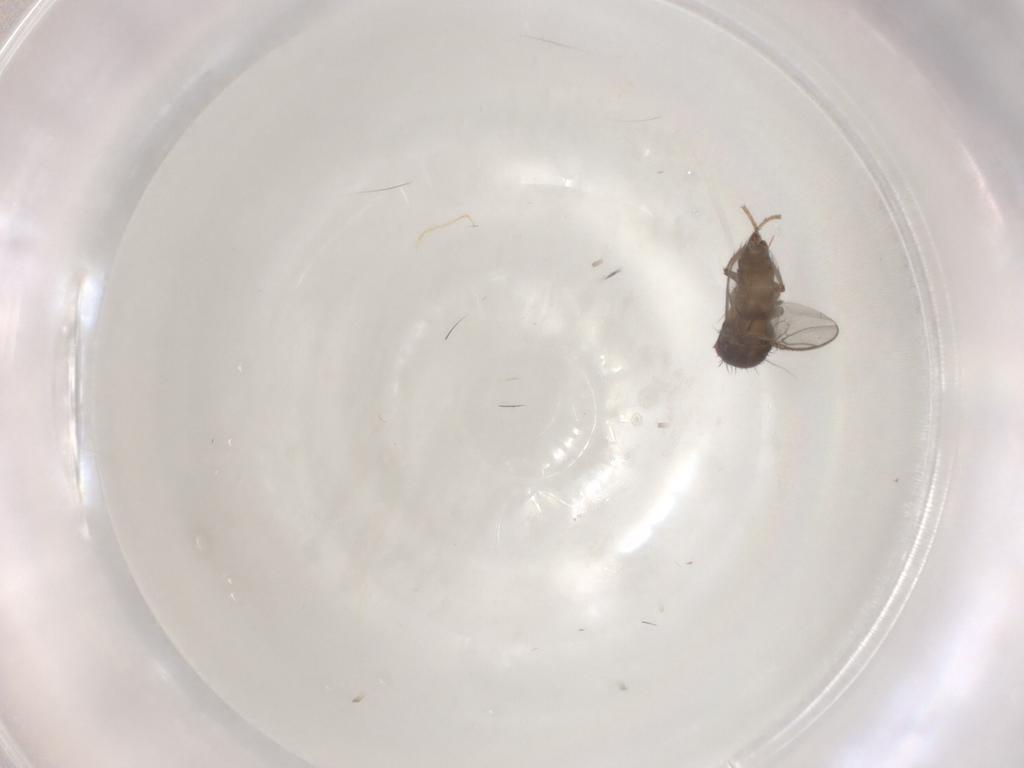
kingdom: Animalia
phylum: Arthropoda
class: Insecta
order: Diptera
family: Sphaeroceridae
